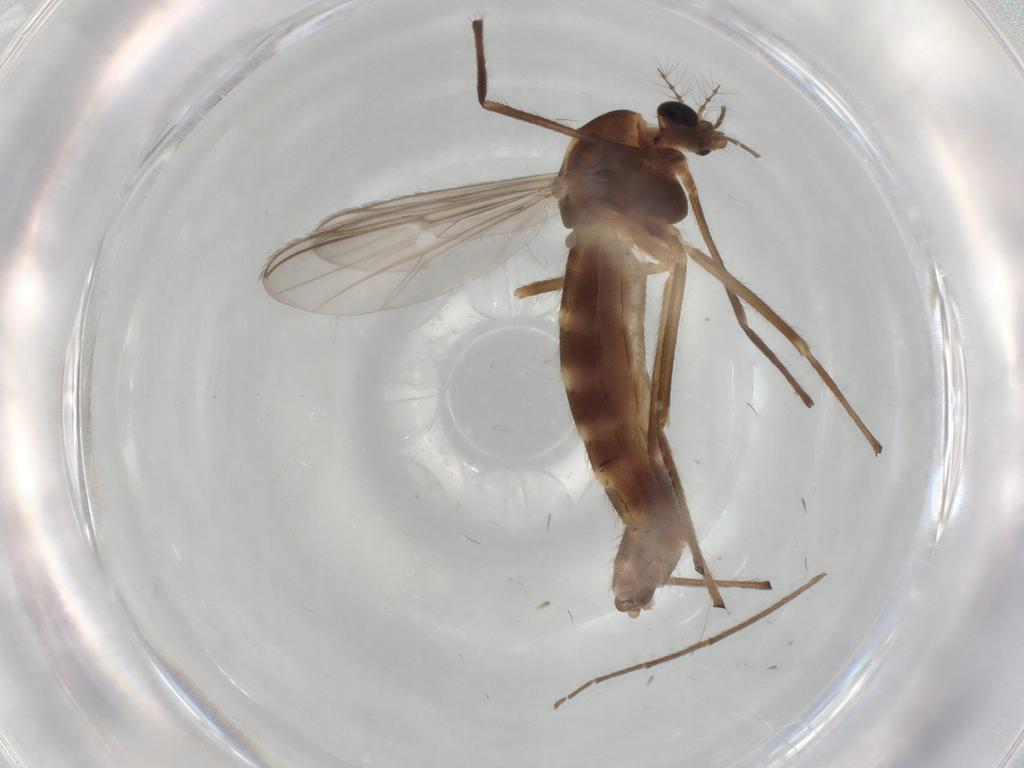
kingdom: Animalia
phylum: Arthropoda
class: Insecta
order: Diptera
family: Chironomidae
